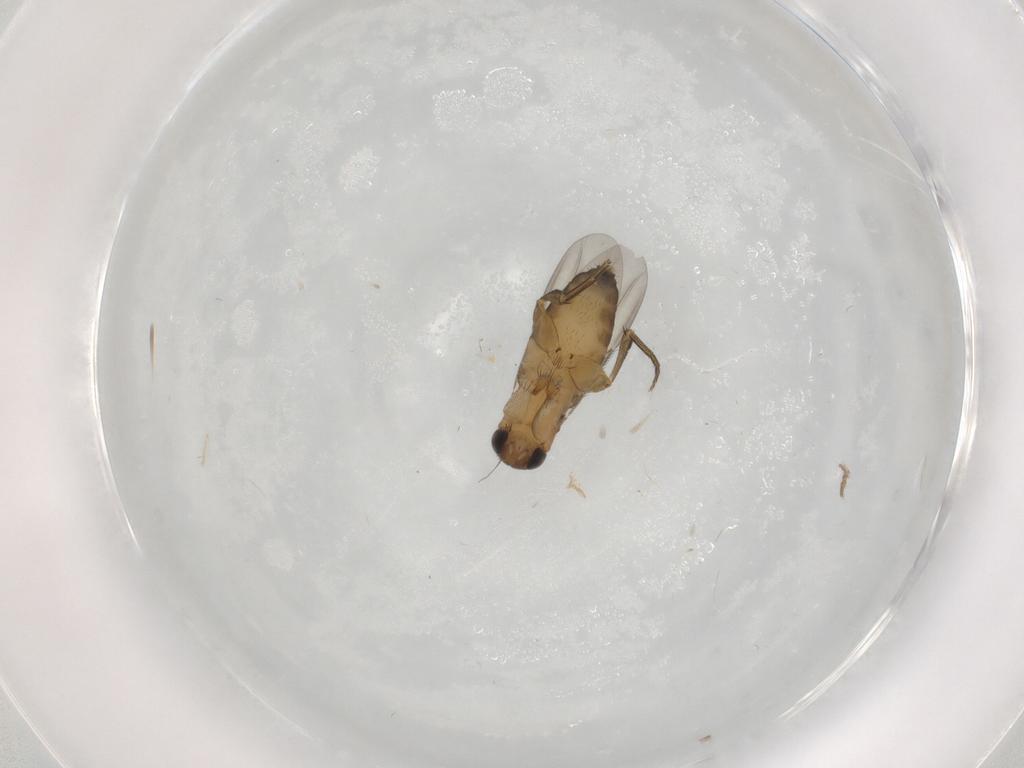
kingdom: Animalia
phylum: Arthropoda
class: Insecta
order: Diptera
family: Phoridae
